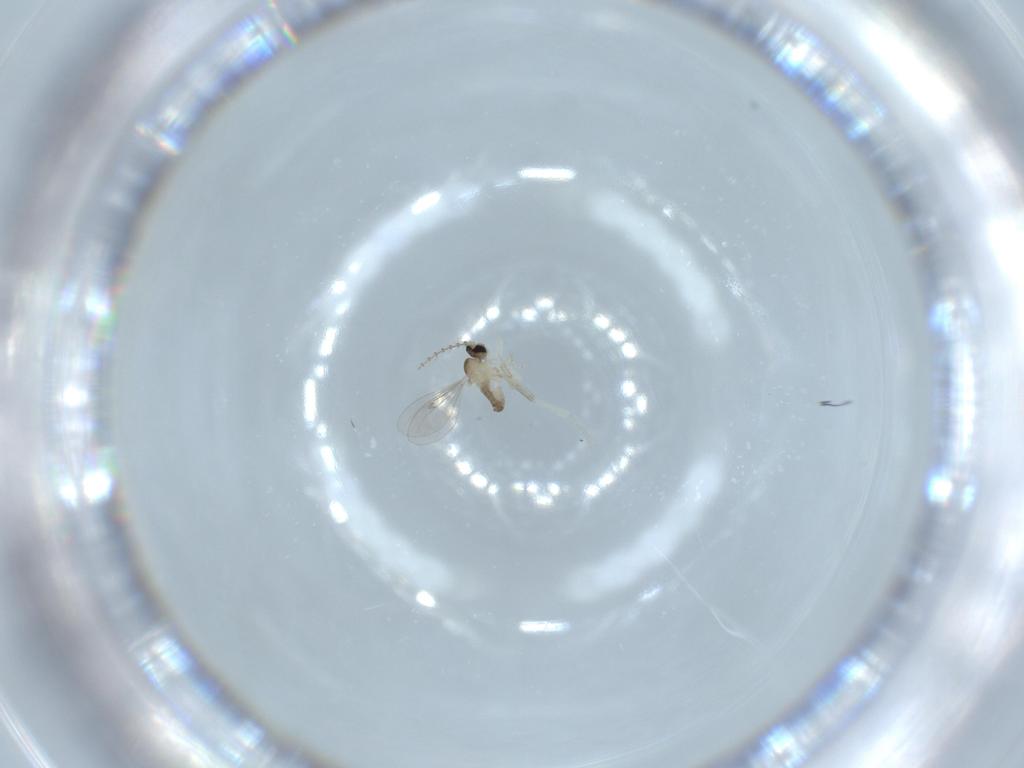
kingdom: Animalia
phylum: Arthropoda
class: Insecta
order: Diptera
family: Cecidomyiidae
